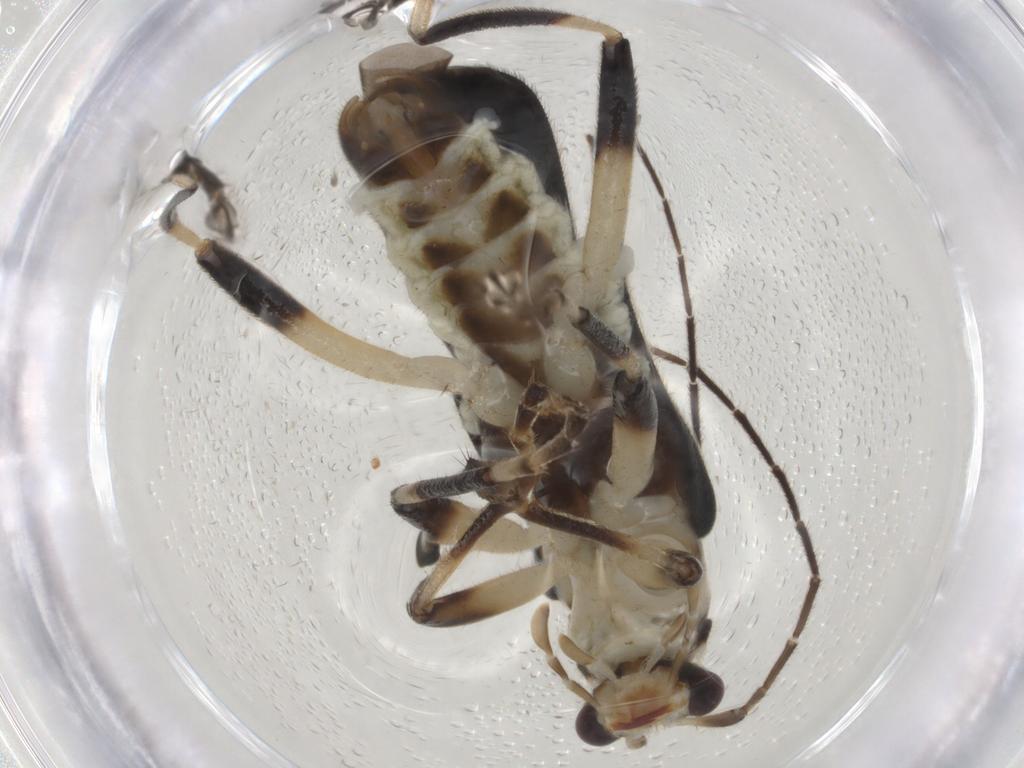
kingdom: Animalia
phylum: Arthropoda
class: Insecta
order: Coleoptera
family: Cantharidae
